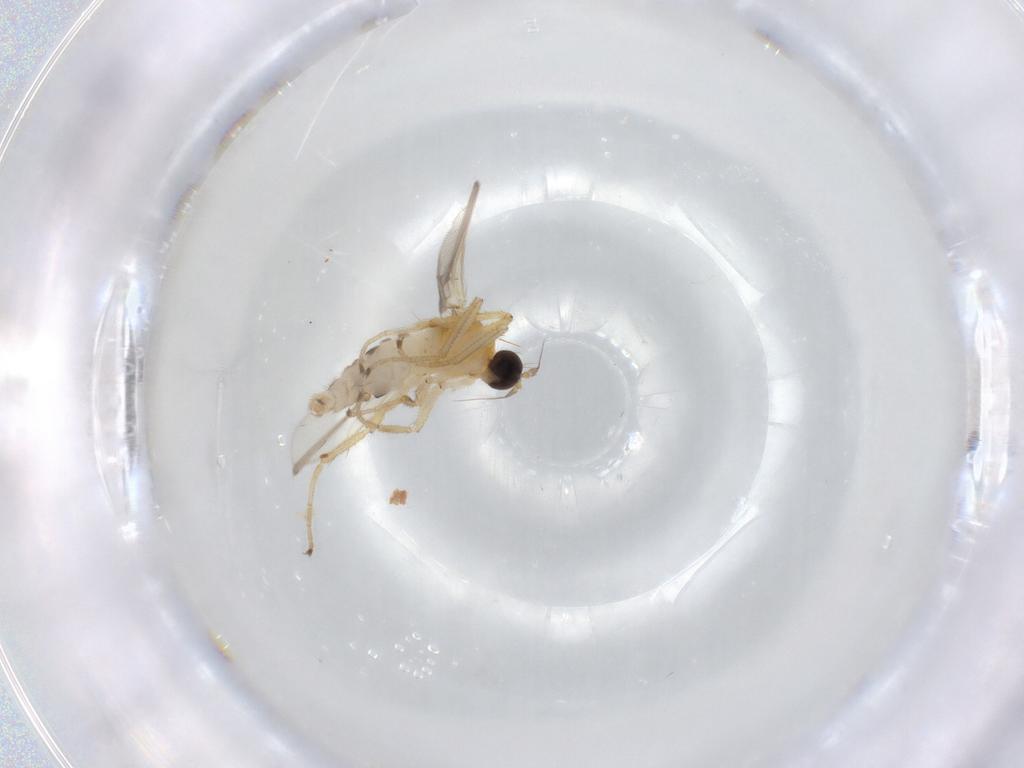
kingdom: Animalia
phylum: Arthropoda
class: Insecta
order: Diptera
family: Hybotidae
